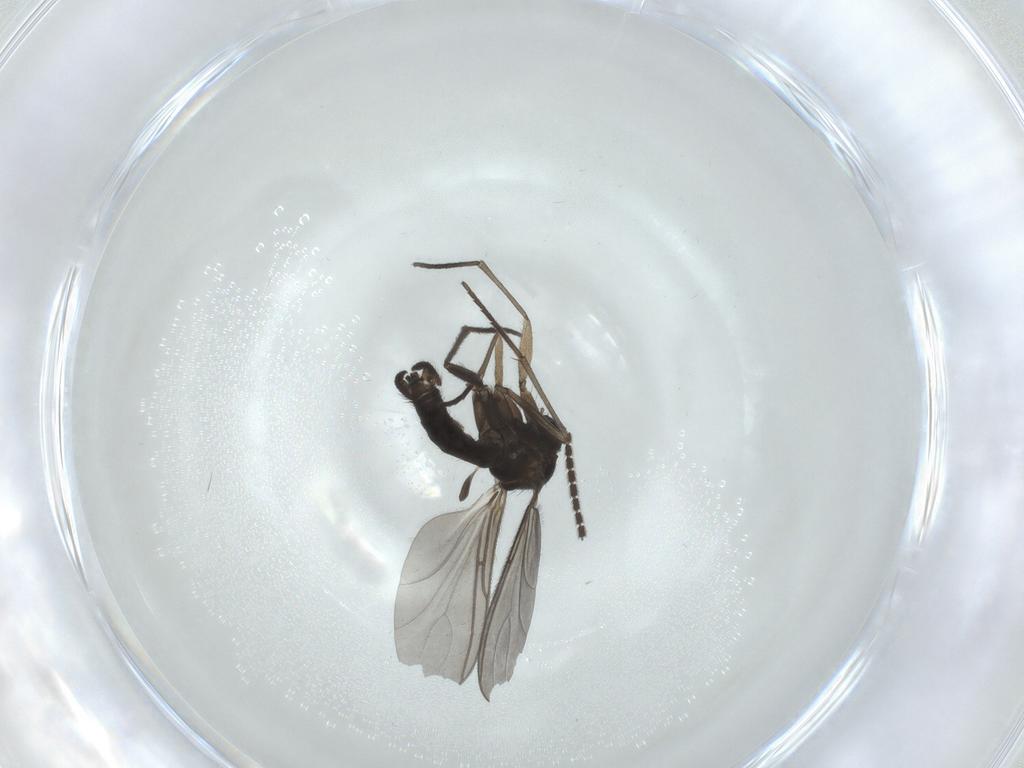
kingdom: Animalia
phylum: Arthropoda
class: Insecta
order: Diptera
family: Sciaridae
